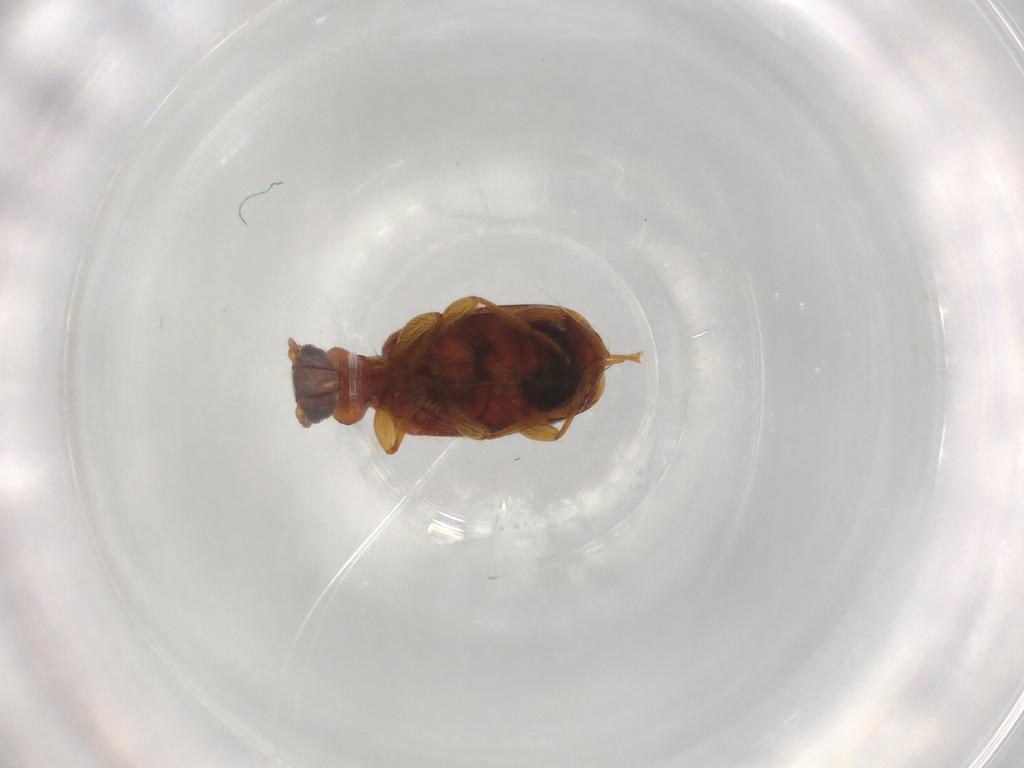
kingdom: Animalia
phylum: Arthropoda
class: Insecta
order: Coleoptera
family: Anthicidae
